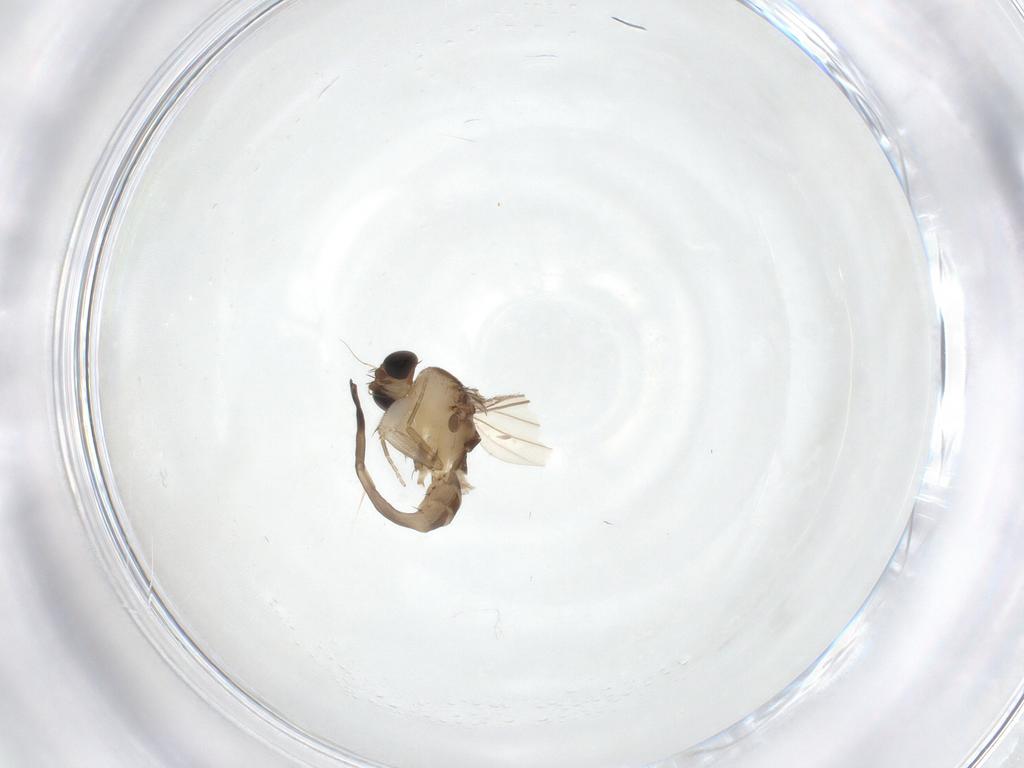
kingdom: Animalia
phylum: Arthropoda
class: Insecta
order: Diptera
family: Phoridae
